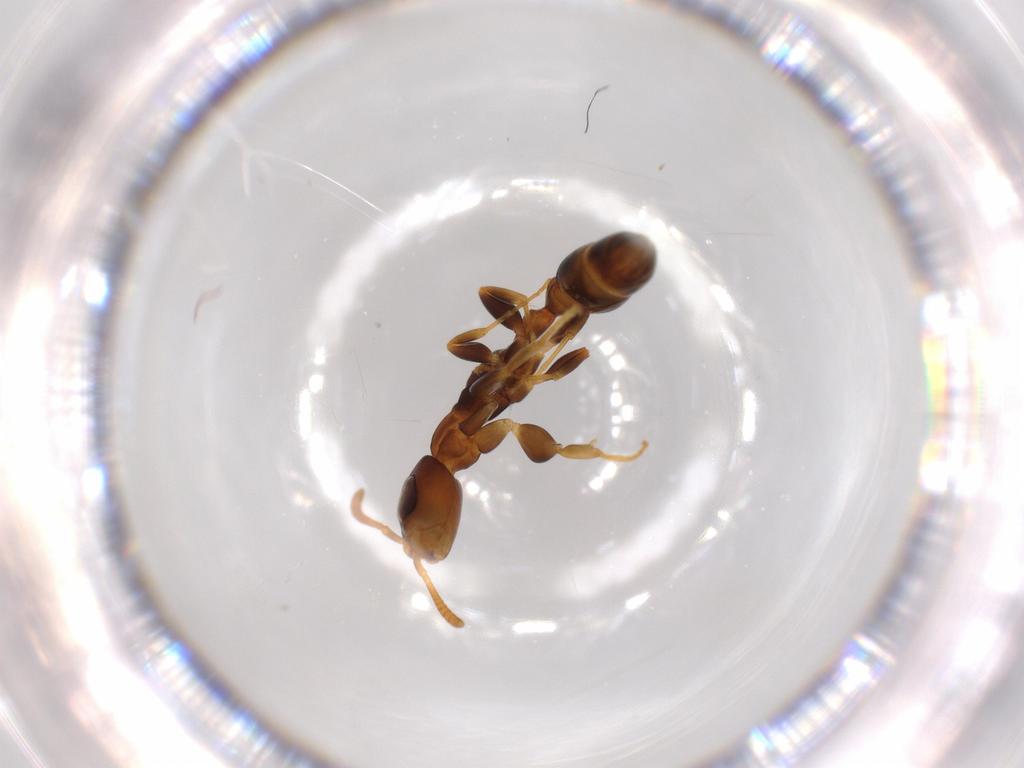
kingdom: Animalia
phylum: Arthropoda
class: Insecta
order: Hymenoptera
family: Formicidae
